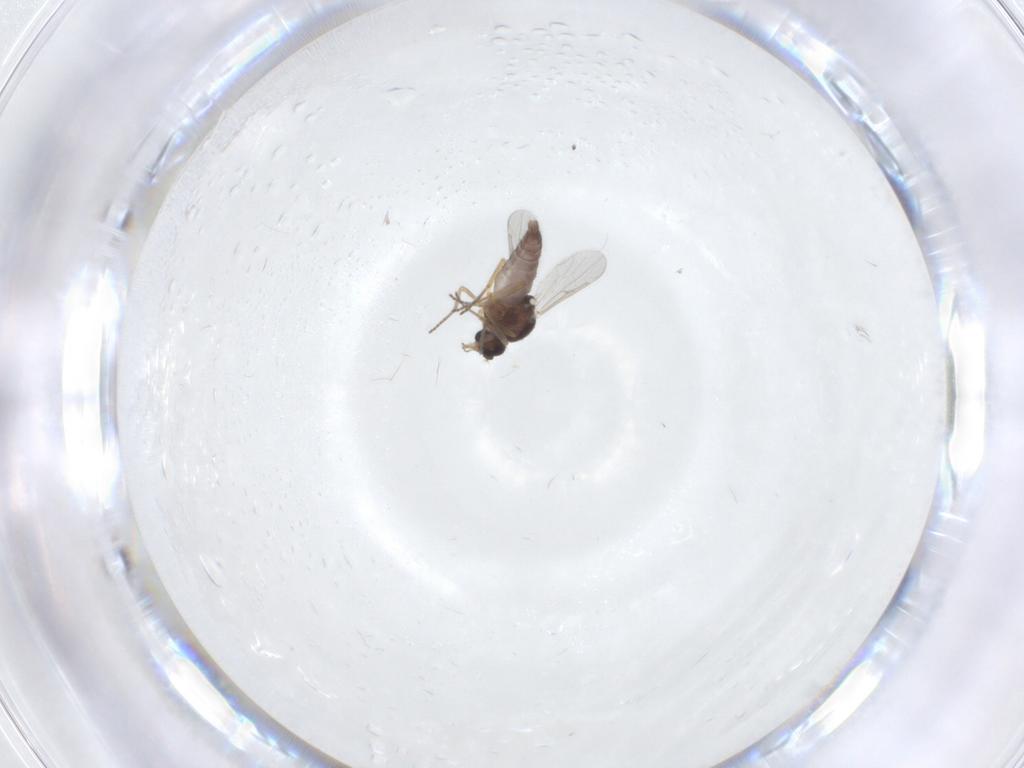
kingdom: Animalia
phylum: Arthropoda
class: Insecta
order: Diptera
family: Ceratopogonidae
